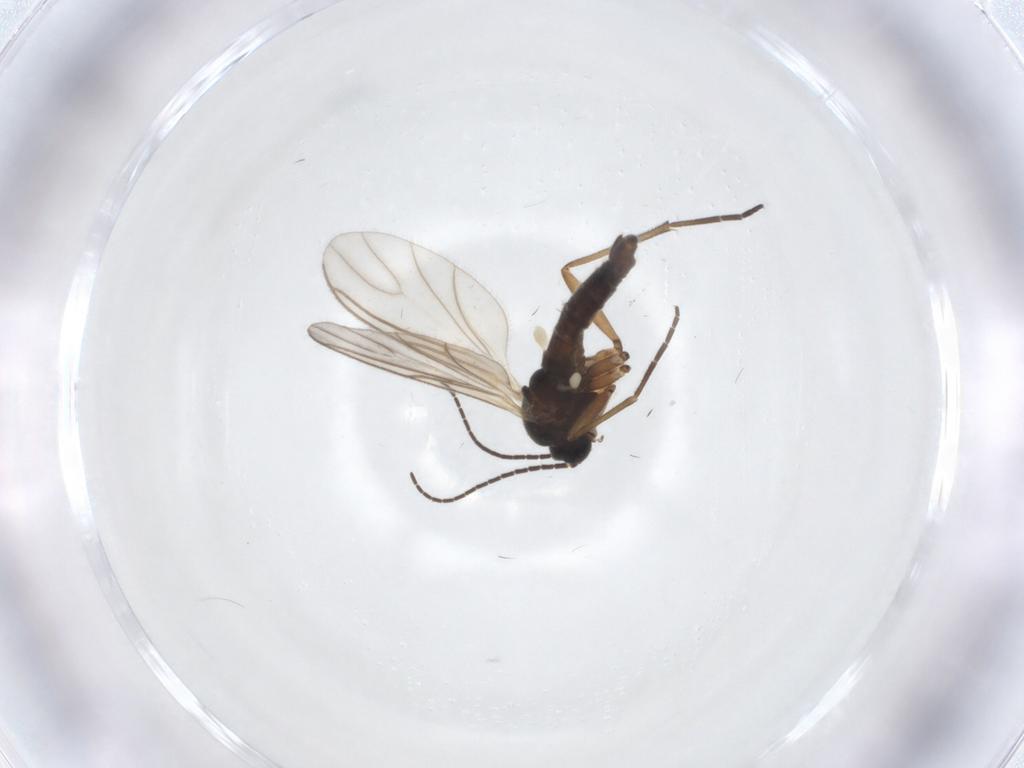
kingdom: Animalia
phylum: Arthropoda
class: Insecta
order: Diptera
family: Sciaridae
